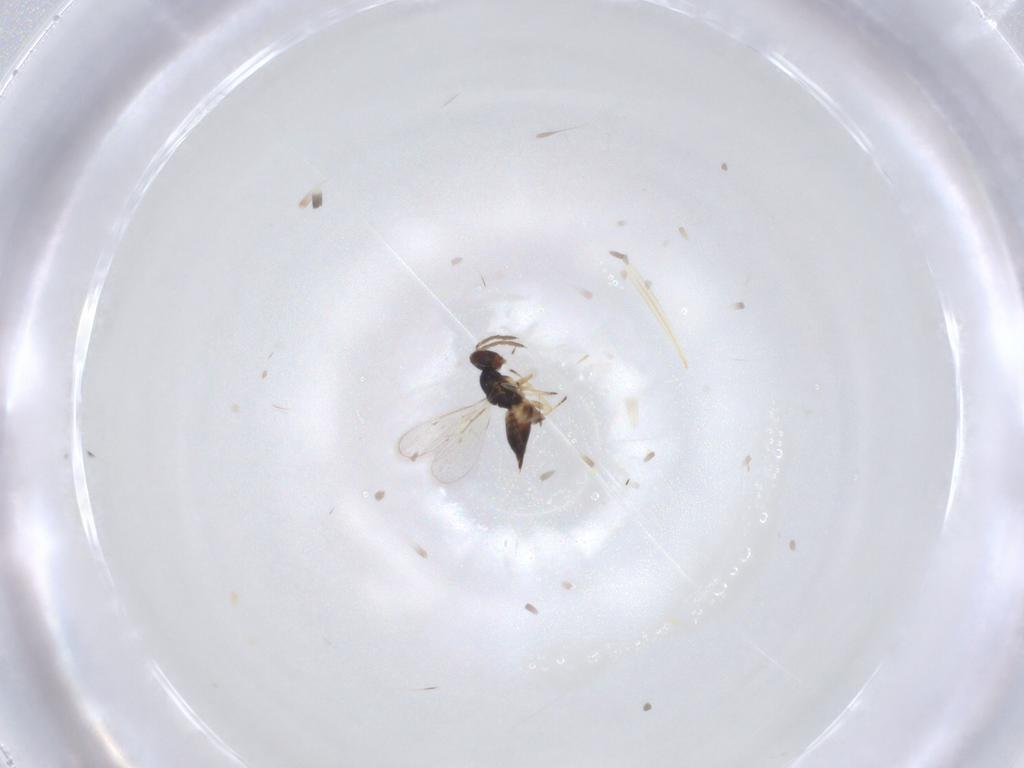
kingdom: Animalia
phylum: Arthropoda
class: Insecta
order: Hymenoptera
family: Eulophidae
